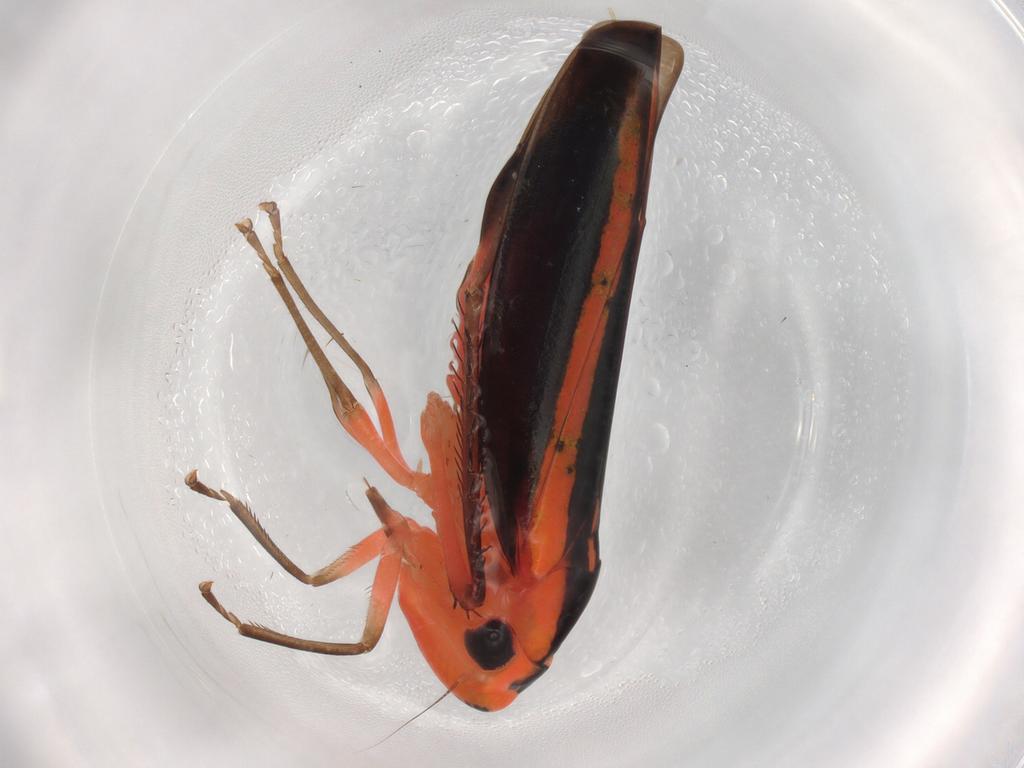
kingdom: Animalia
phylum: Arthropoda
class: Insecta
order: Hemiptera
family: Cicadellidae
